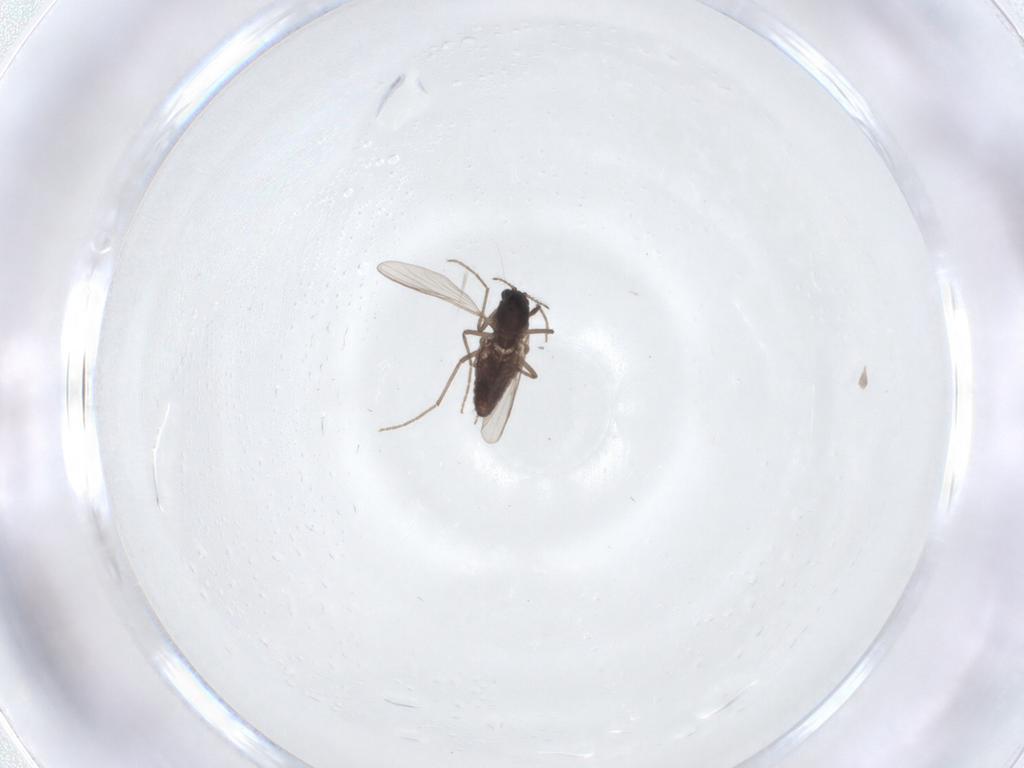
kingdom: Animalia
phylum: Arthropoda
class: Insecta
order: Diptera
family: Chironomidae
